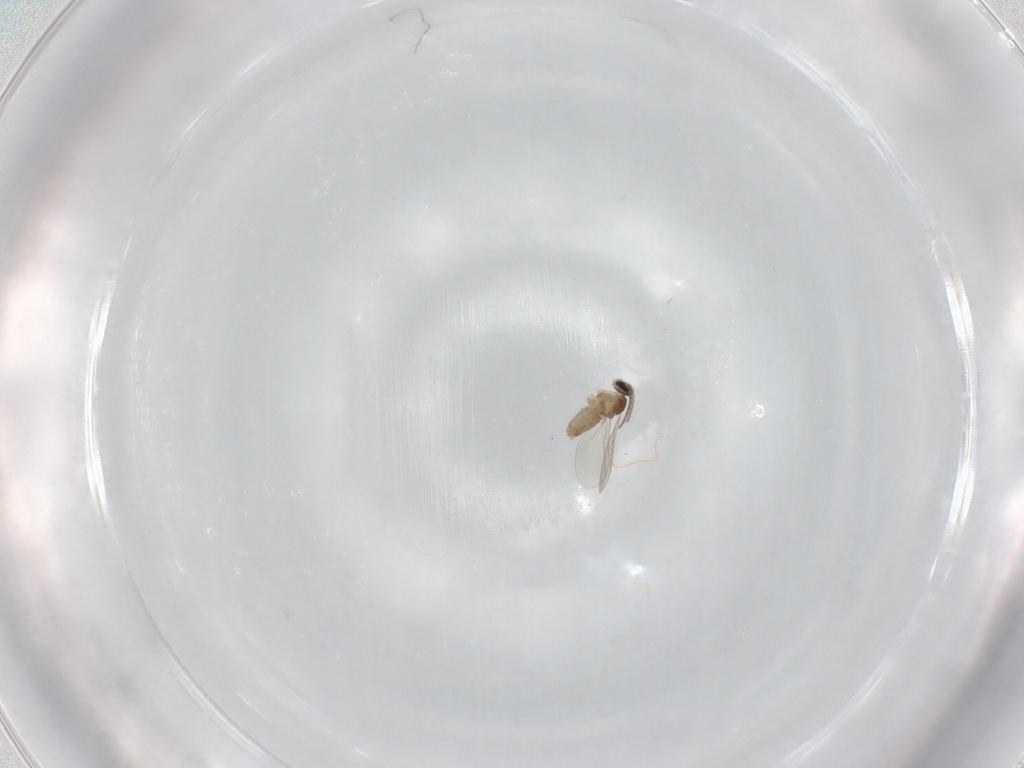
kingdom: Animalia
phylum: Arthropoda
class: Insecta
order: Diptera
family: Cecidomyiidae
